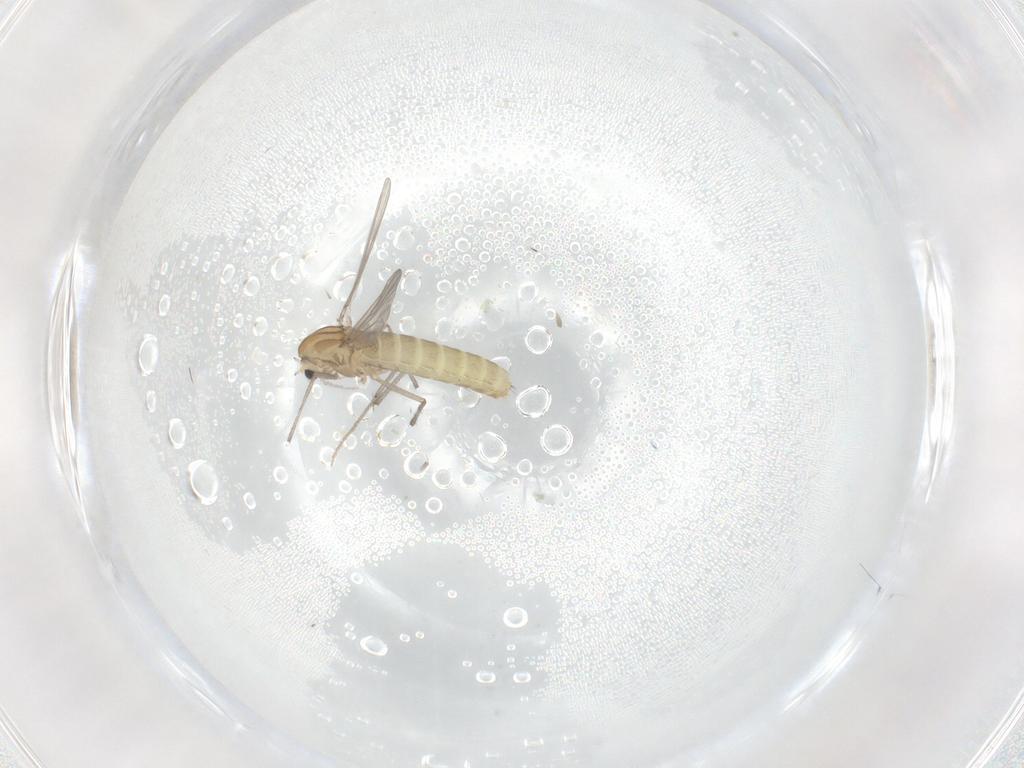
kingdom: Animalia
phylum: Arthropoda
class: Insecta
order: Diptera
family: Chironomidae
